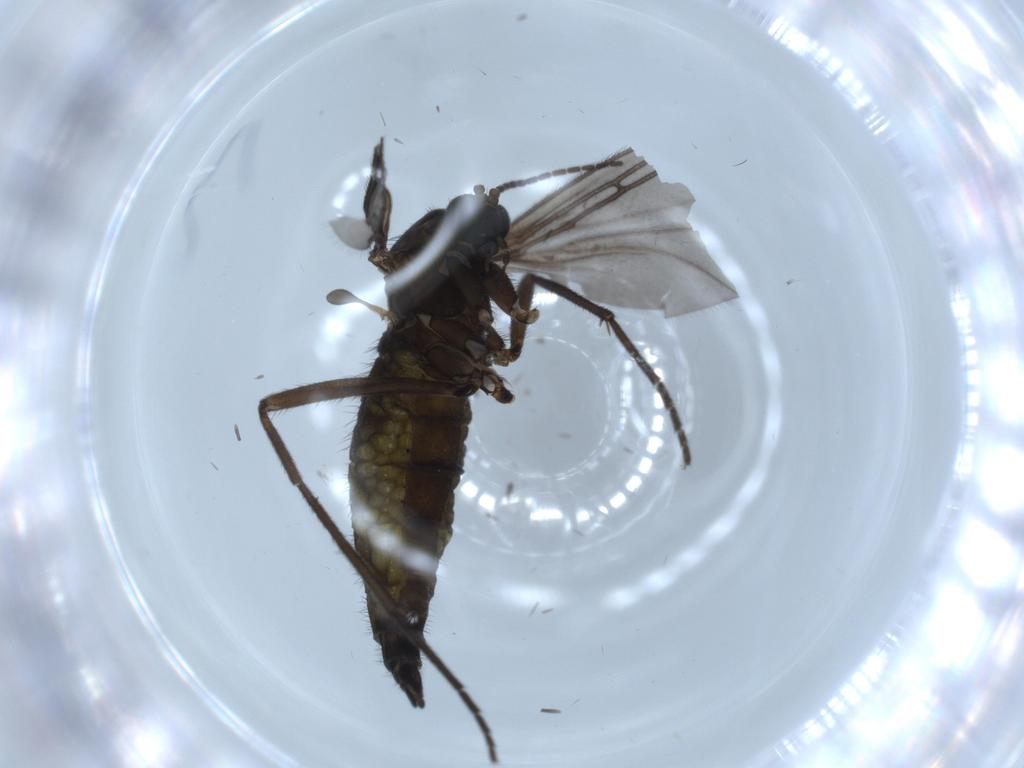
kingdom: Animalia
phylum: Arthropoda
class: Insecta
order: Diptera
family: Sciaridae
